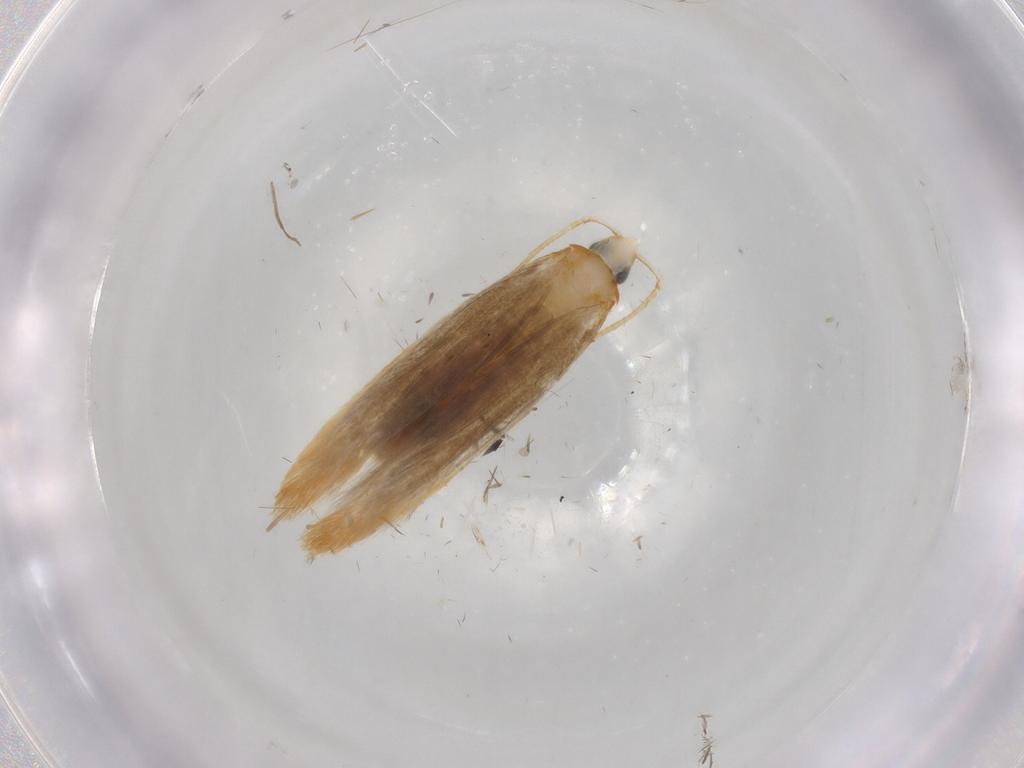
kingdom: Animalia
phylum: Arthropoda
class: Insecta
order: Lepidoptera
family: Tineidae
